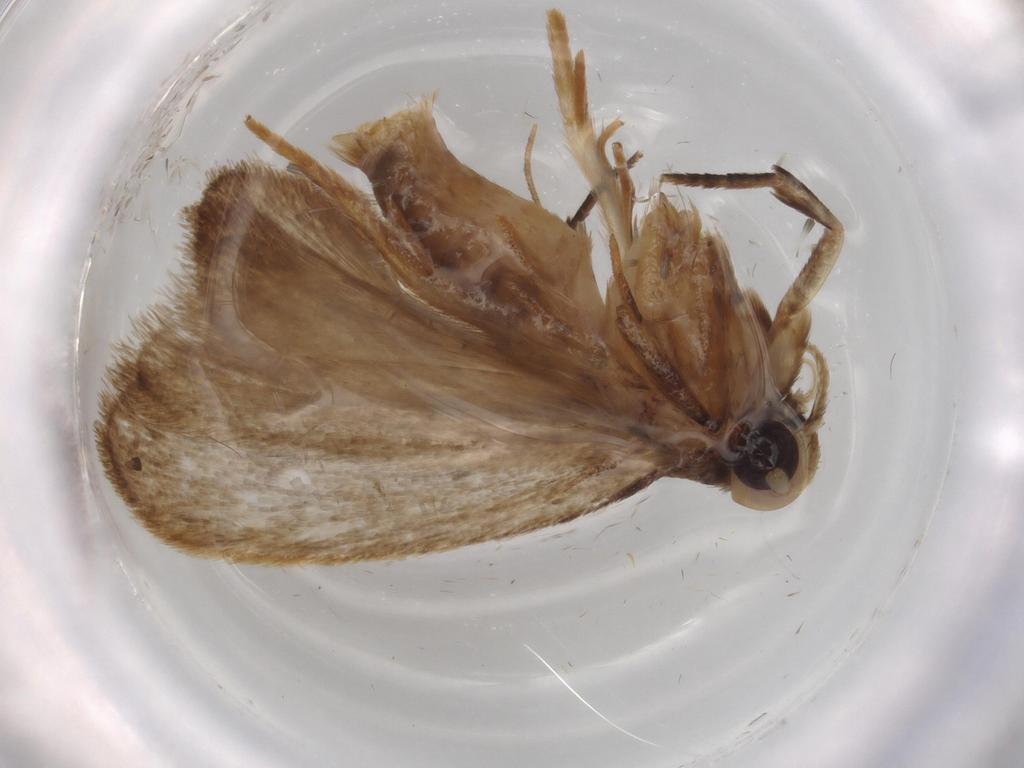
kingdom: Animalia
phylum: Arthropoda
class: Insecta
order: Lepidoptera
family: Oecophoridae
